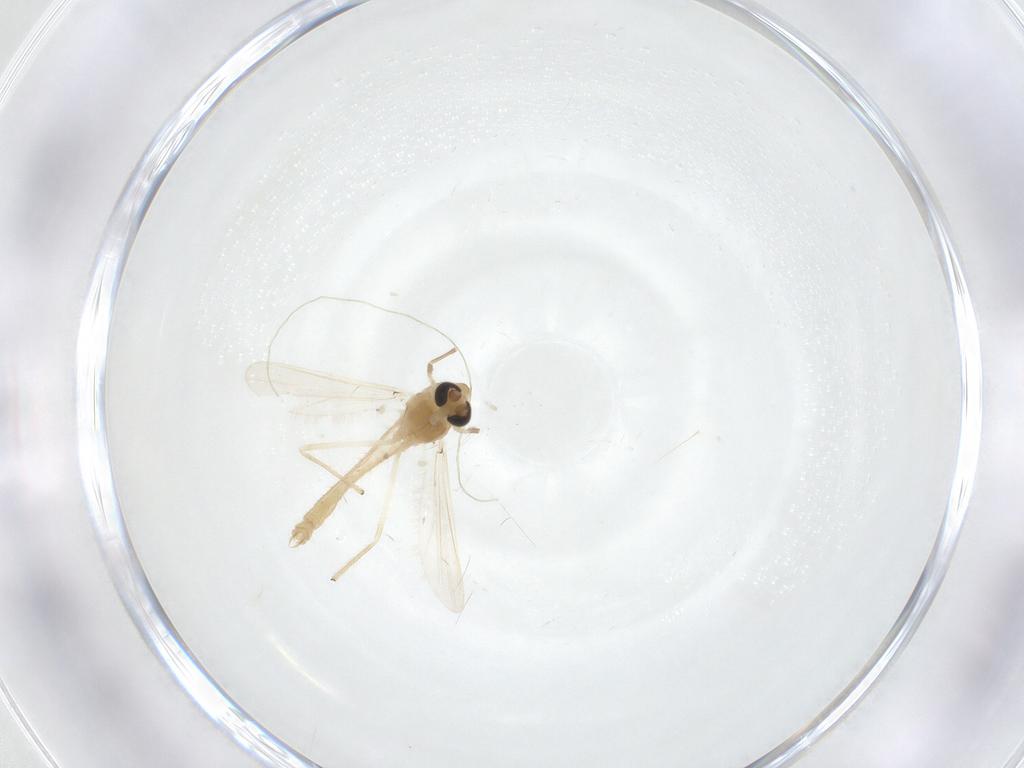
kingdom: Animalia
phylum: Arthropoda
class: Insecta
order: Diptera
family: Chironomidae
